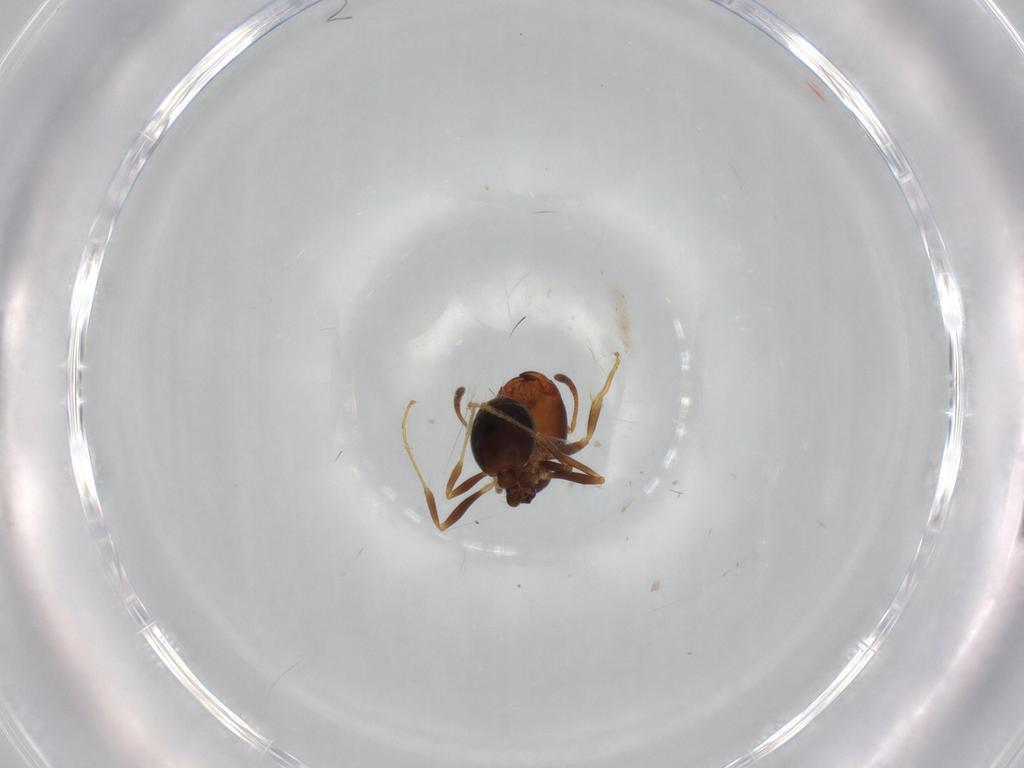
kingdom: Animalia
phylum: Arthropoda
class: Insecta
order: Hymenoptera
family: Formicidae
